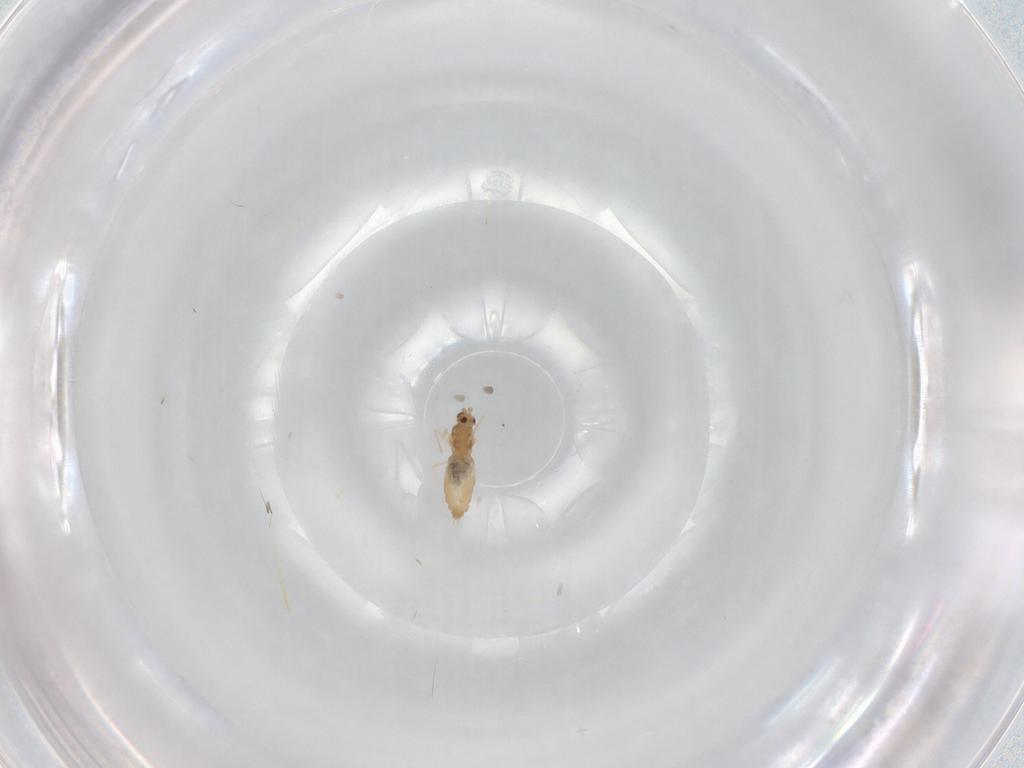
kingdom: Animalia
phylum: Arthropoda
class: Insecta
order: Diptera
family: Cecidomyiidae
